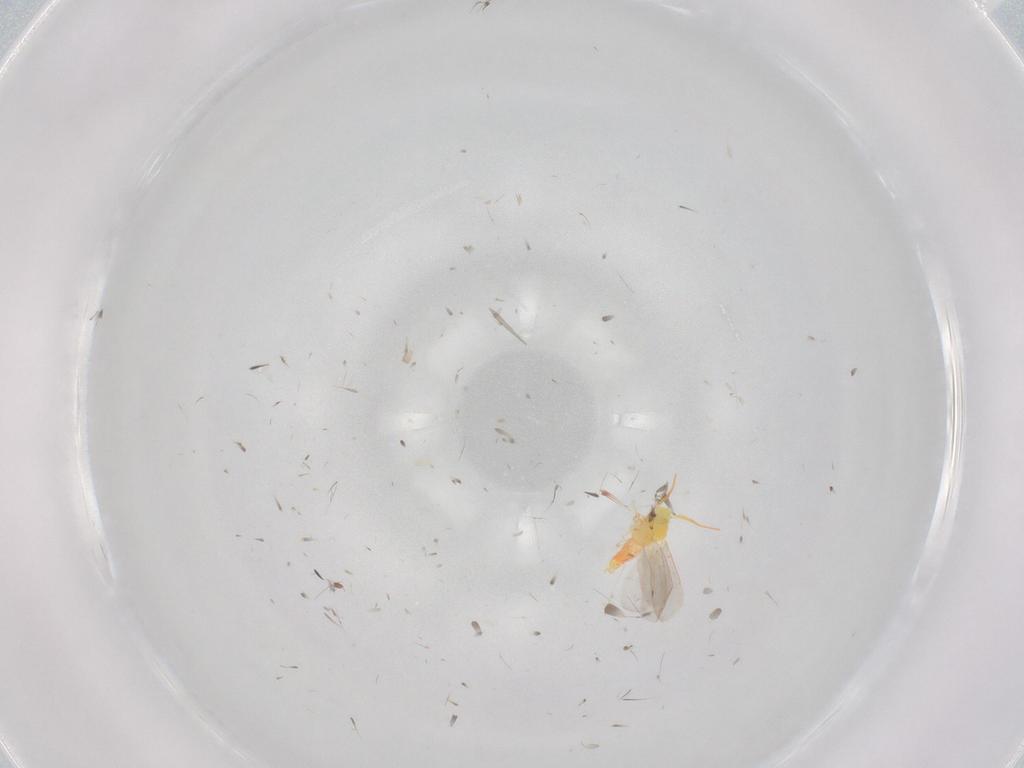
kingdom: Animalia
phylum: Arthropoda
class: Insecta
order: Hemiptera
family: Aleyrodidae
